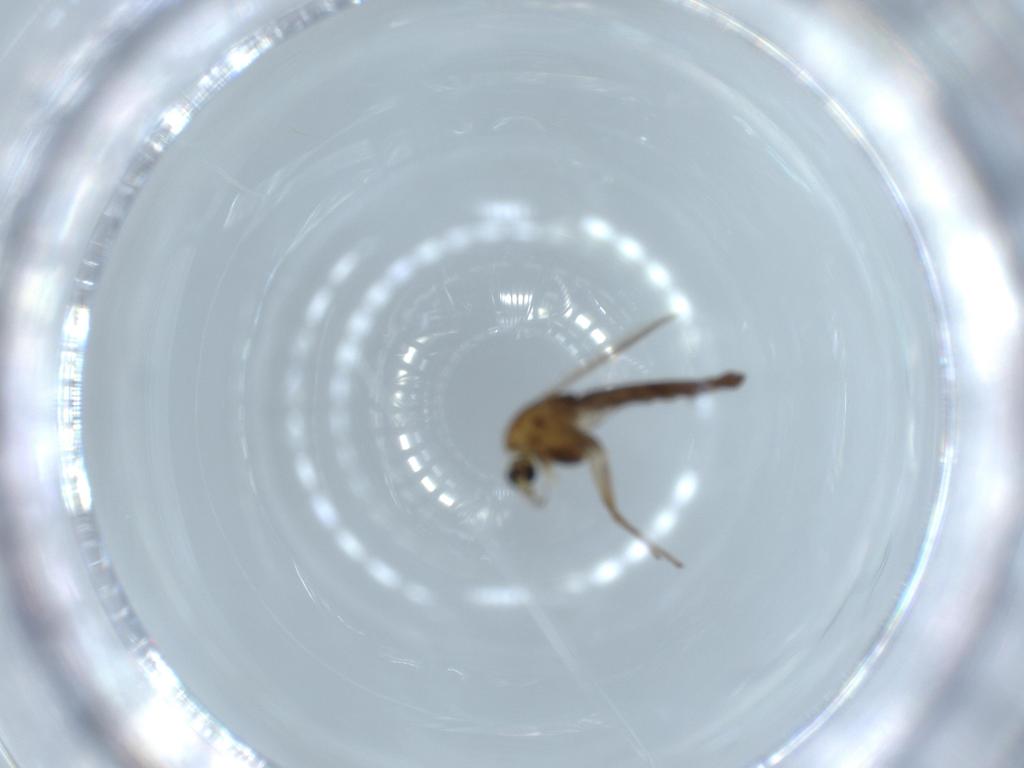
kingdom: Animalia
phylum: Arthropoda
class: Insecta
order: Diptera
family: Chironomidae
